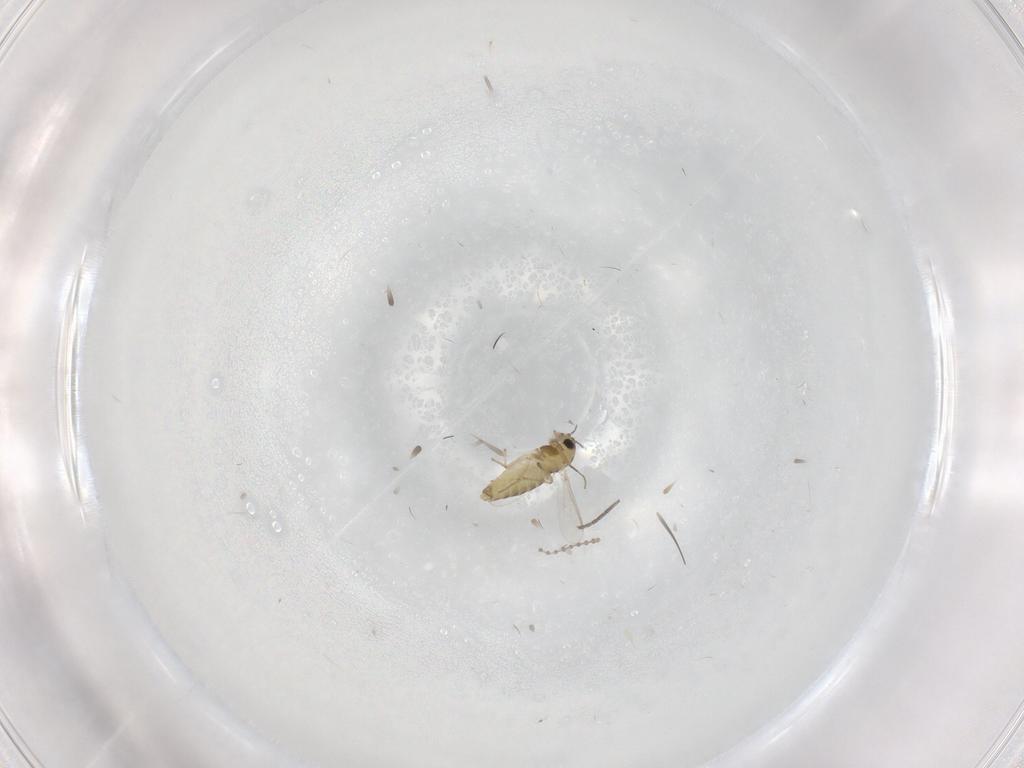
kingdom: Animalia
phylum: Arthropoda
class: Insecta
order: Diptera
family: Chironomidae
